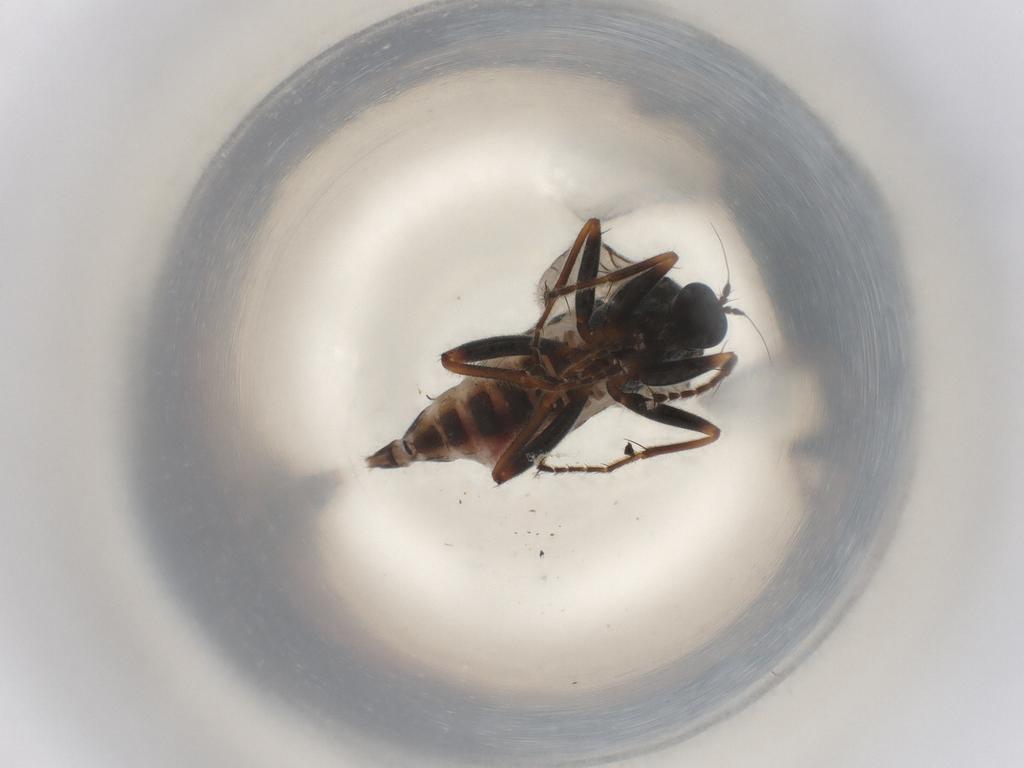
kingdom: Animalia
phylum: Arthropoda
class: Insecta
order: Diptera
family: Hybotidae
